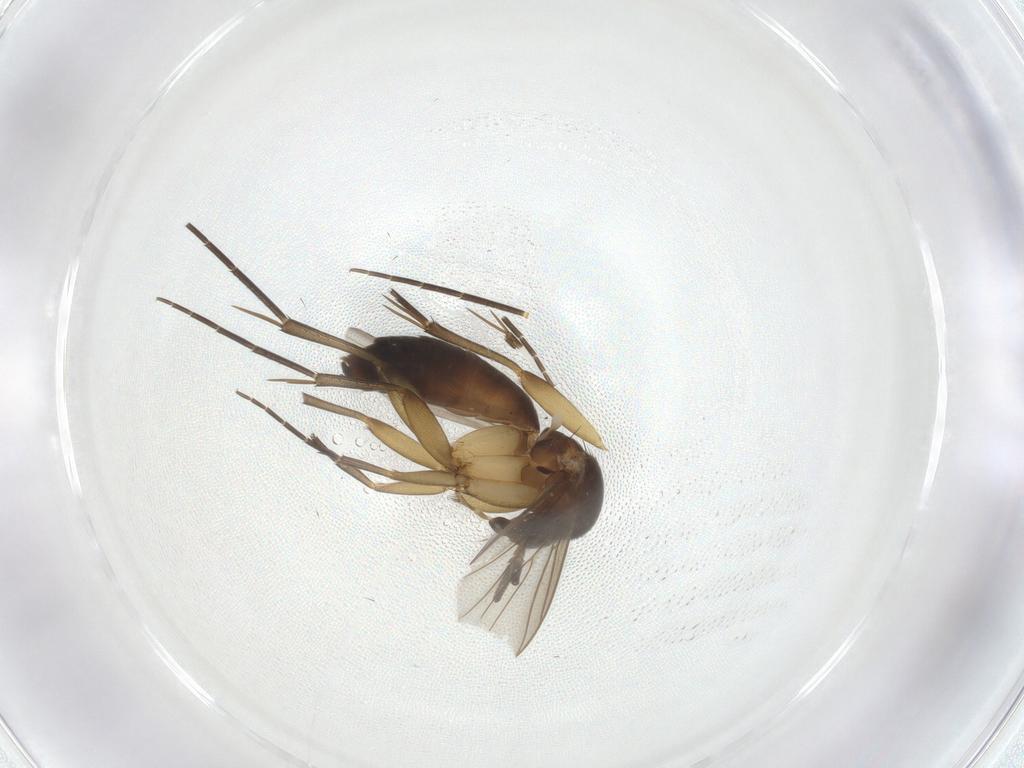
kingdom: Animalia
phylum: Arthropoda
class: Insecta
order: Diptera
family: Mycetophilidae
